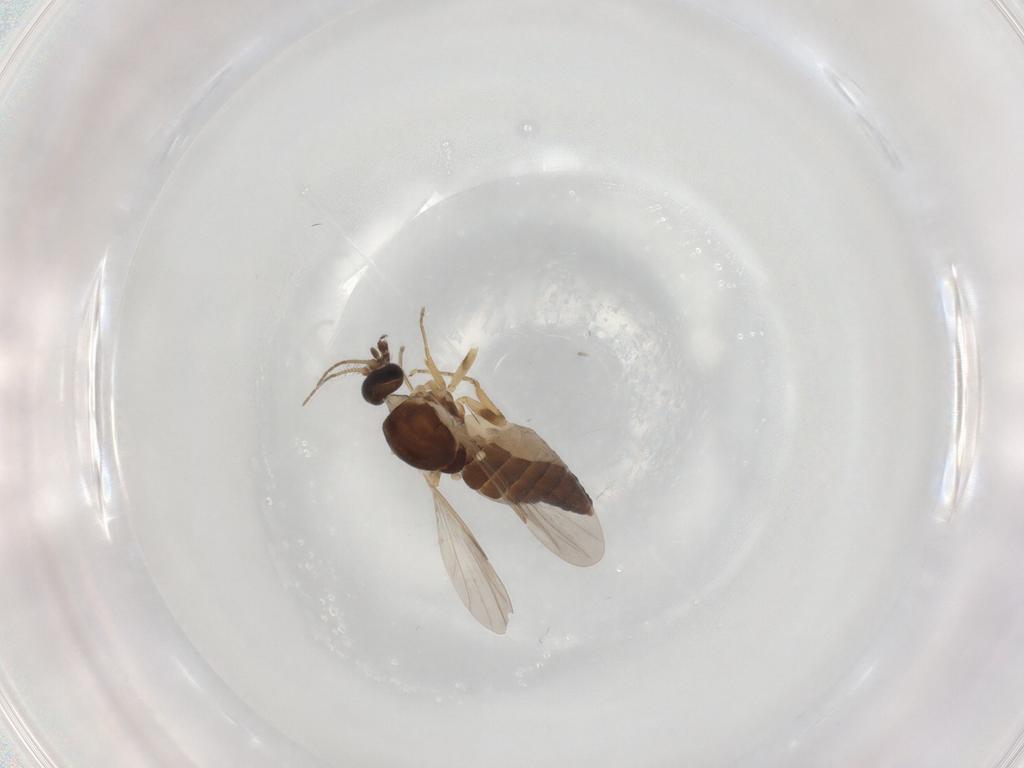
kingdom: Animalia
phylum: Arthropoda
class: Insecta
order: Diptera
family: Ceratopogonidae
